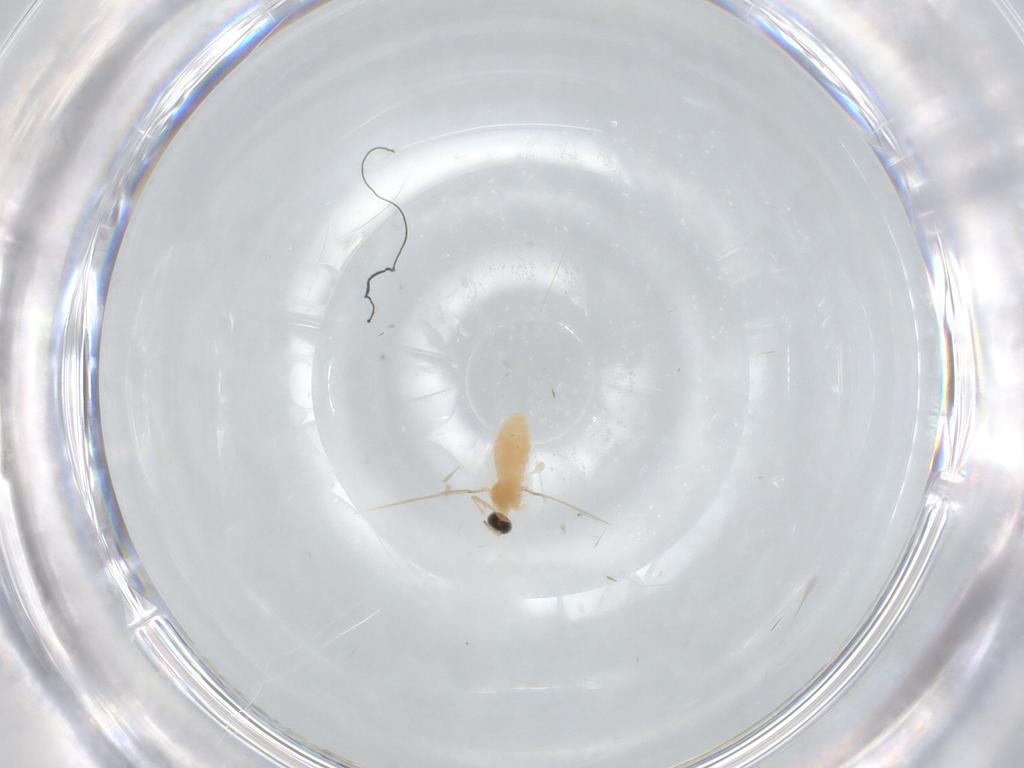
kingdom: Animalia
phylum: Arthropoda
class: Insecta
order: Diptera
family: Cecidomyiidae
